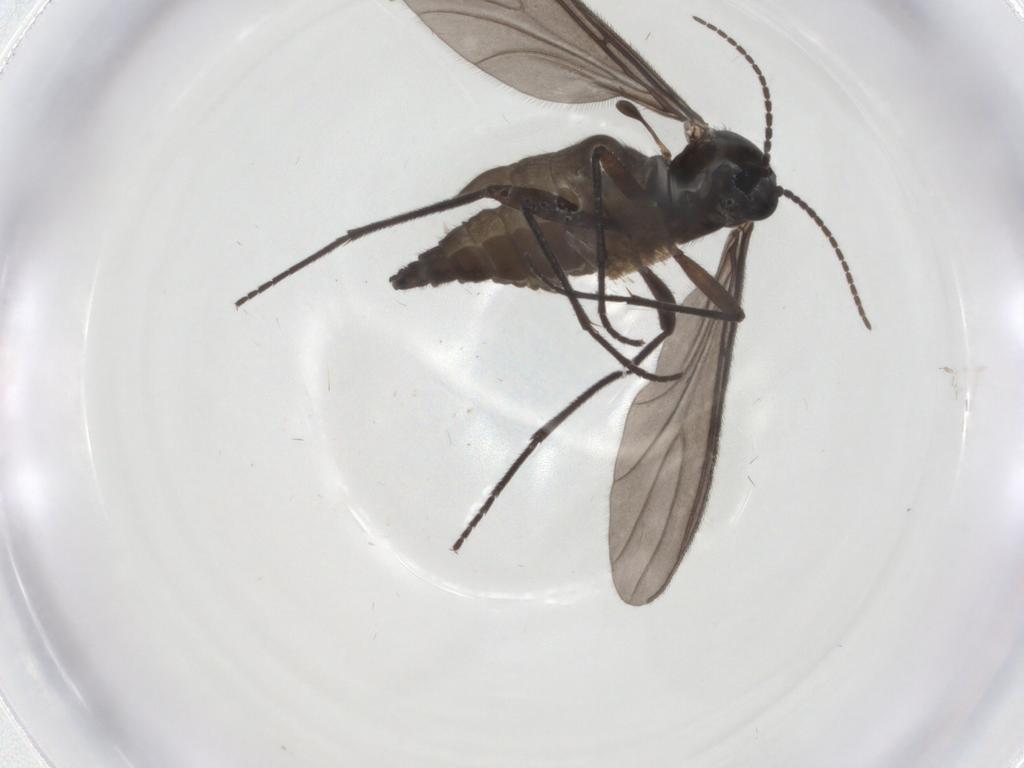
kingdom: Animalia
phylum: Arthropoda
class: Insecta
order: Diptera
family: Sciaridae
